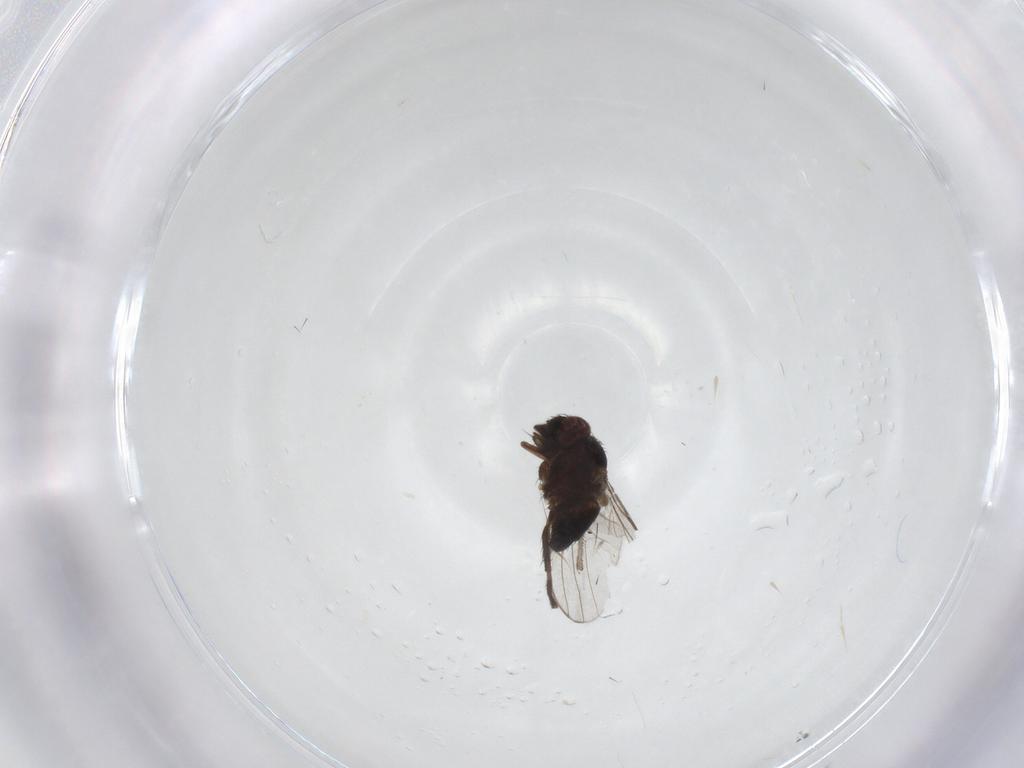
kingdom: Animalia
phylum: Arthropoda
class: Insecta
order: Diptera
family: Milichiidae
